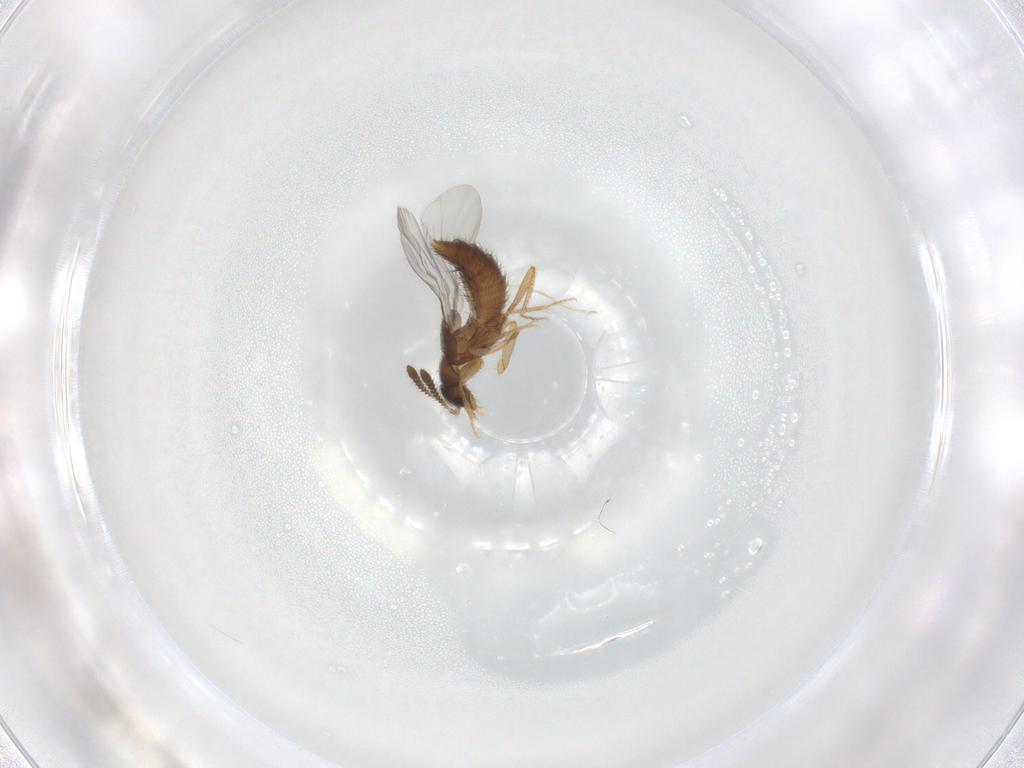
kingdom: Animalia
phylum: Arthropoda
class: Insecta
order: Coleoptera
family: Staphylinidae
